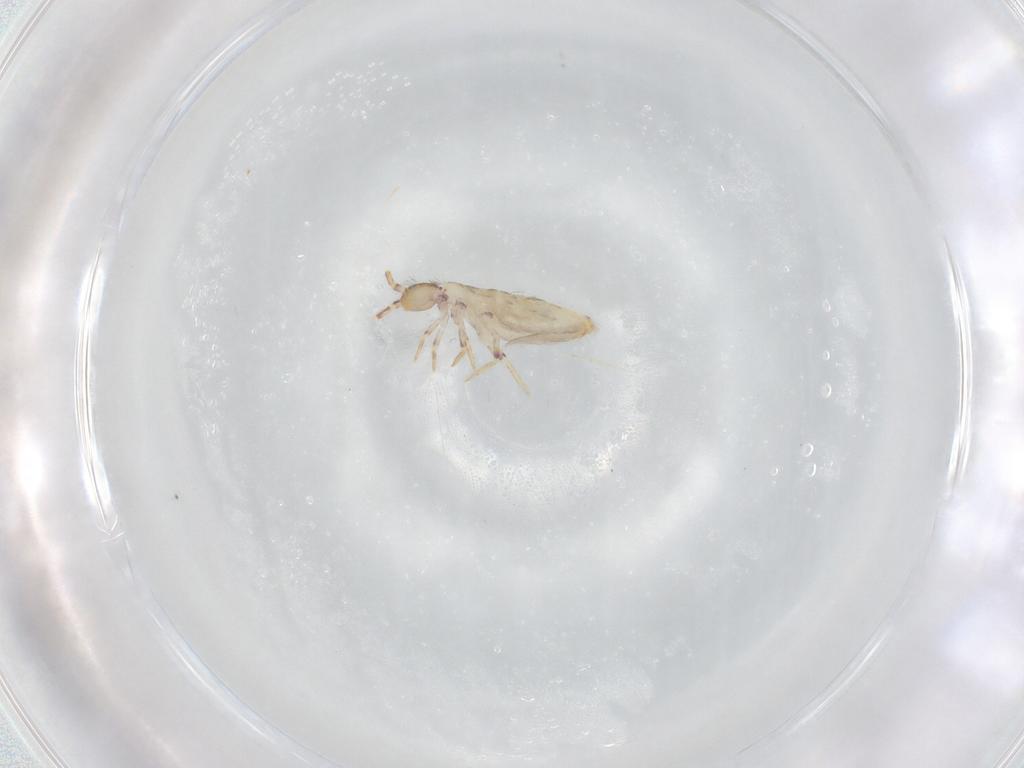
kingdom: Animalia
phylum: Arthropoda
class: Collembola
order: Entomobryomorpha
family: Entomobryidae
